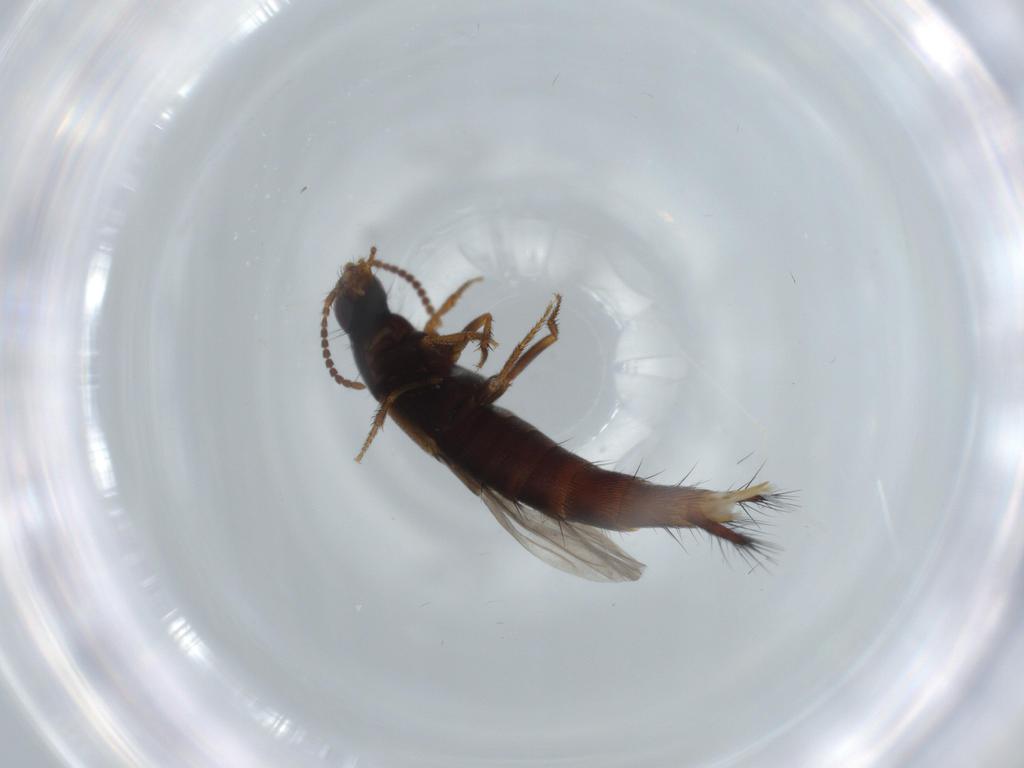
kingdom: Animalia
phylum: Arthropoda
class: Insecta
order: Coleoptera
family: Staphylinidae
